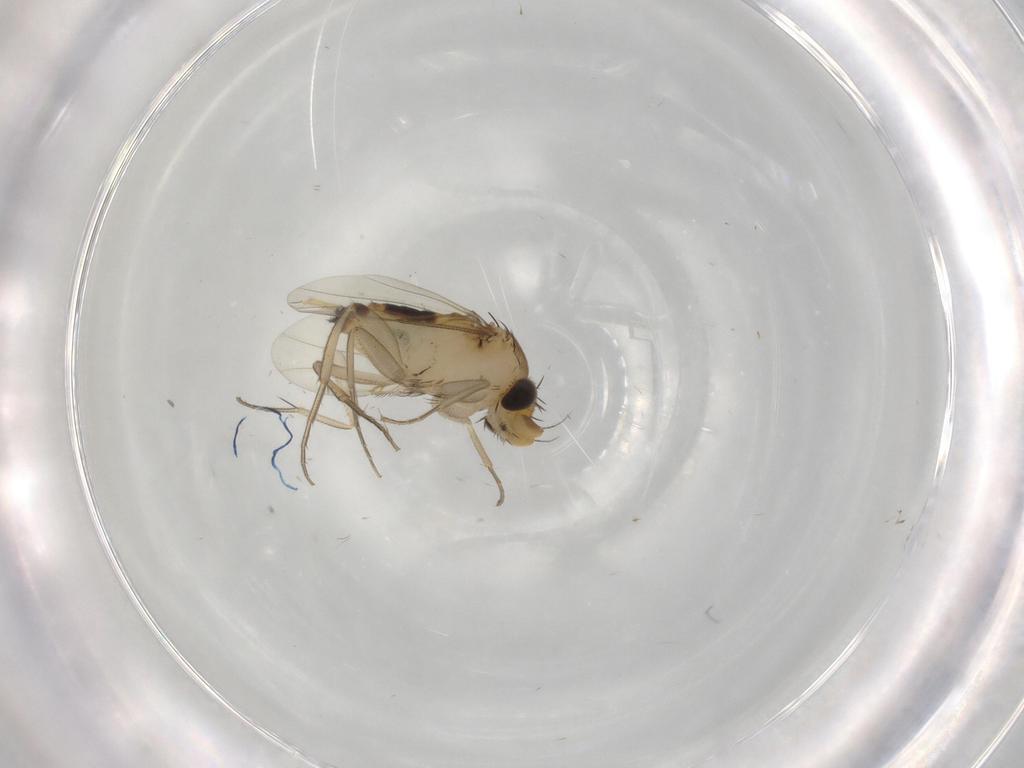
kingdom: Animalia
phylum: Arthropoda
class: Insecta
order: Diptera
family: Phoridae
